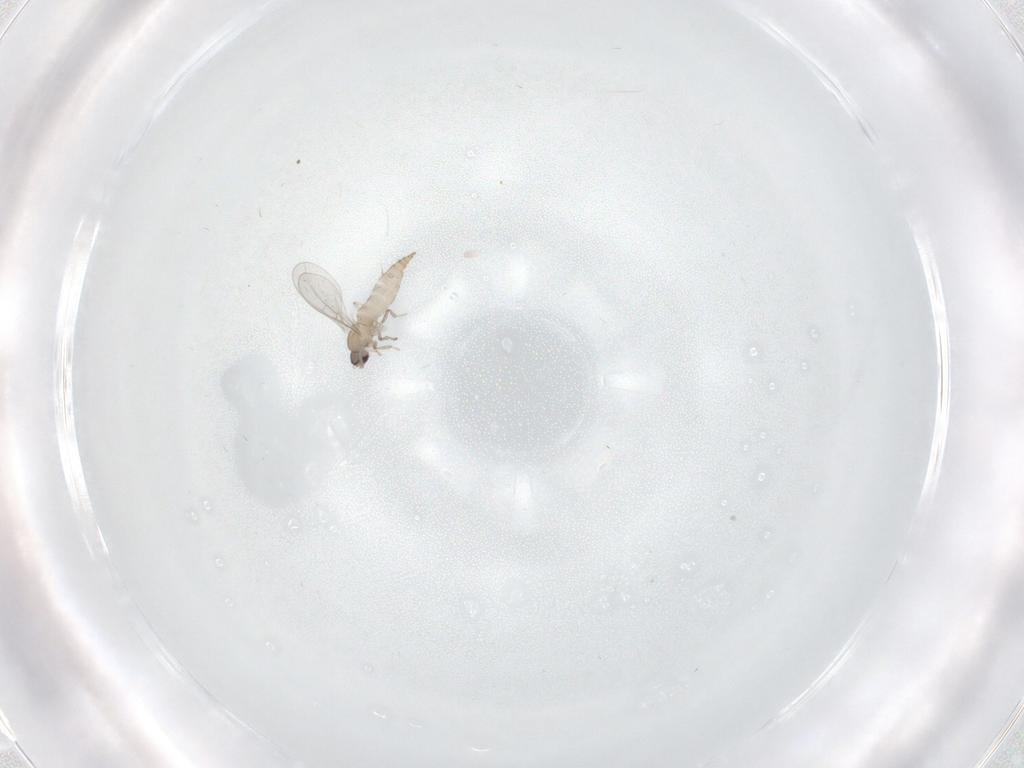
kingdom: Animalia
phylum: Arthropoda
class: Insecta
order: Diptera
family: Cecidomyiidae
